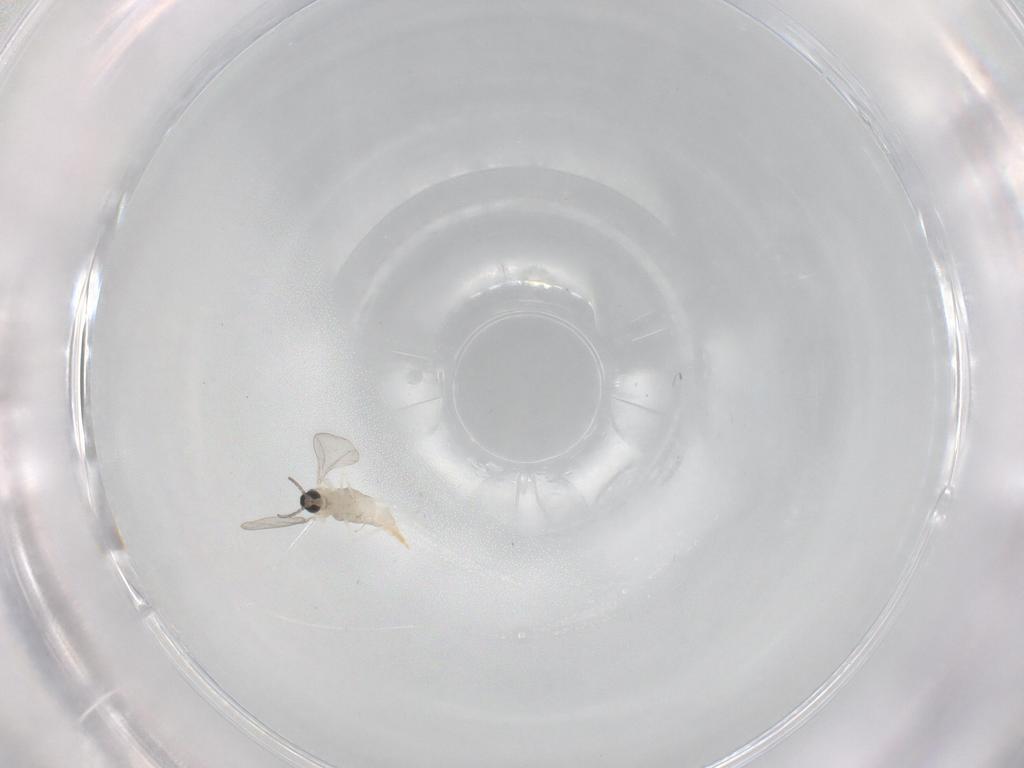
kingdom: Animalia
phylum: Arthropoda
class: Insecta
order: Diptera
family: Cecidomyiidae
